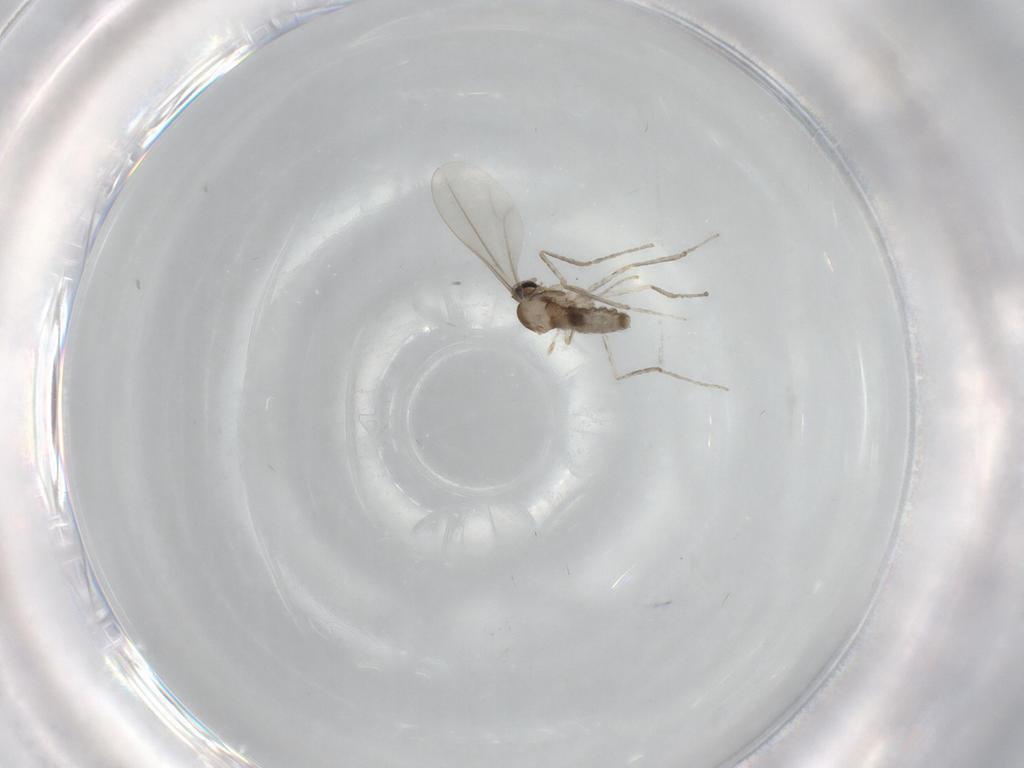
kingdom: Animalia
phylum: Arthropoda
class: Insecta
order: Diptera
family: Cecidomyiidae
